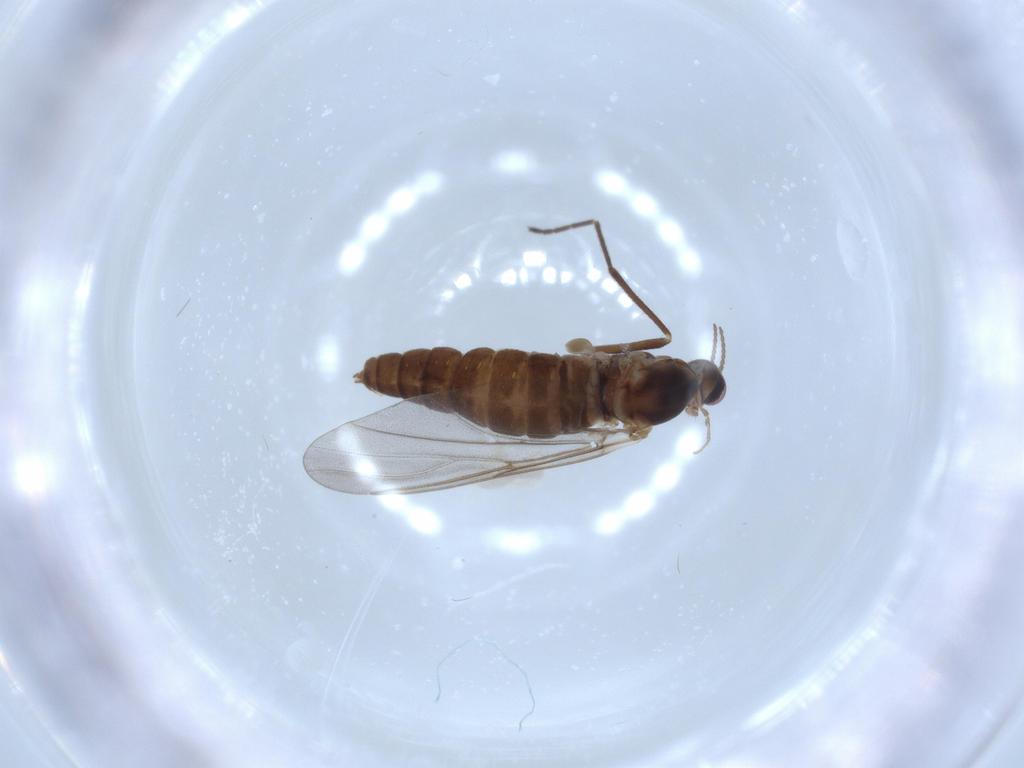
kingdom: Animalia
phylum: Arthropoda
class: Insecta
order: Diptera
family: Cecidomyiidae
